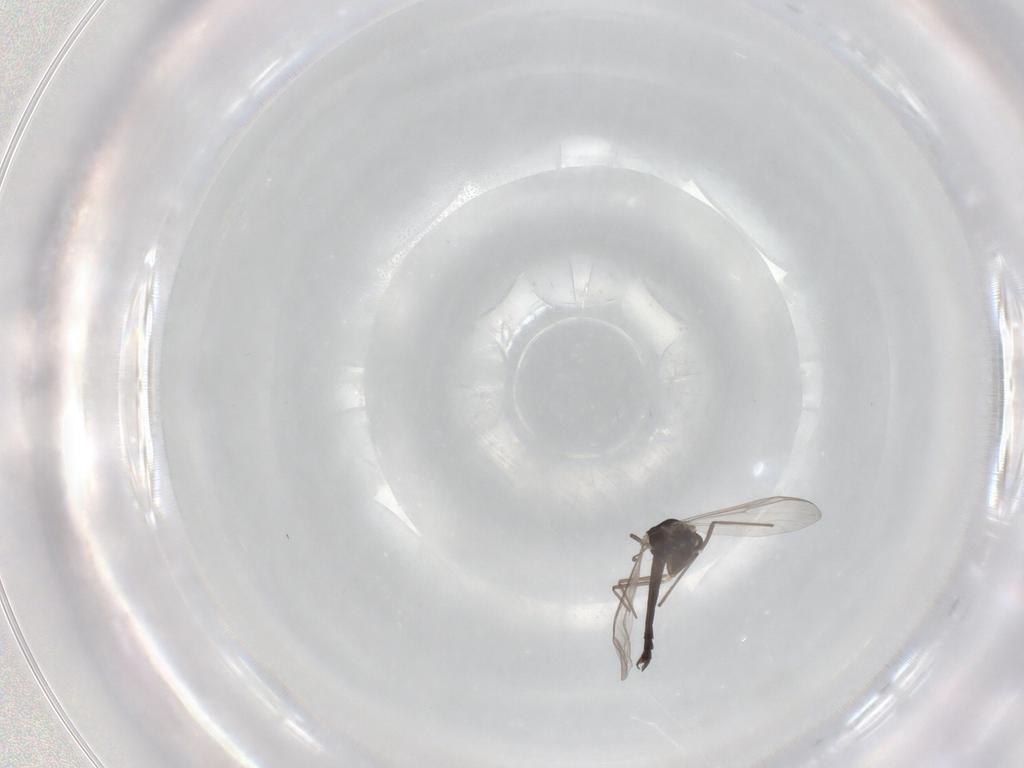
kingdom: Animalia
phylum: Arthropoda
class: Insecta
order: Diptera
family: Chironomidae
